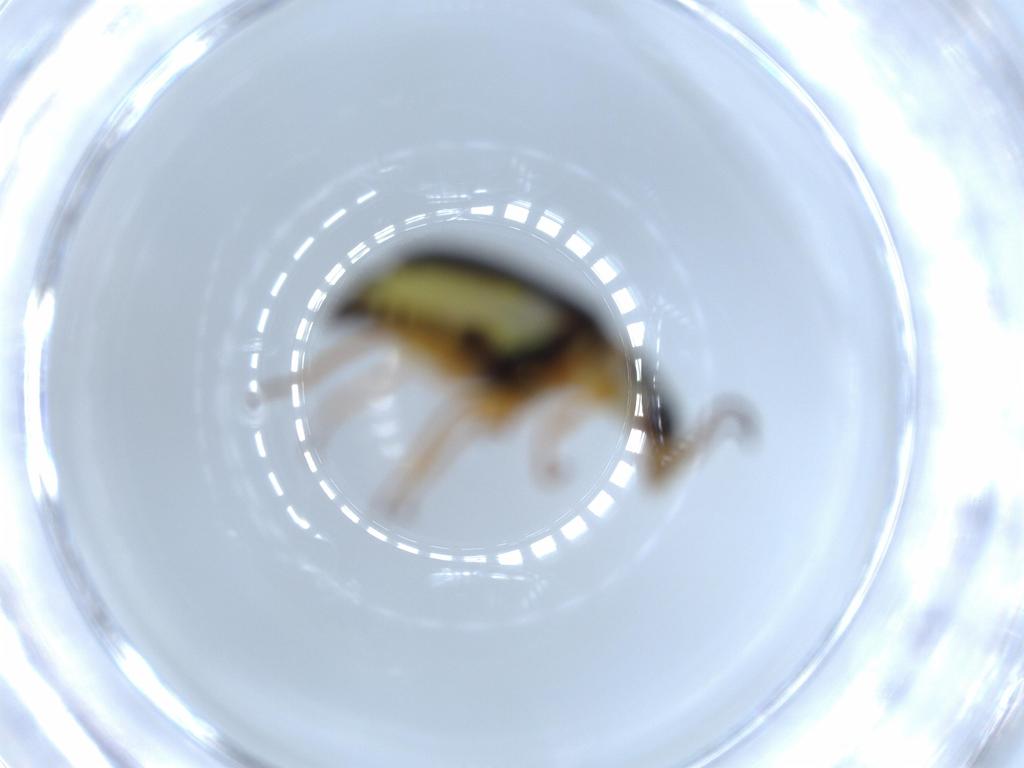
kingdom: Animalia
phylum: Arthropoda
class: Insecta
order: Coleoptera
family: Melyridae
